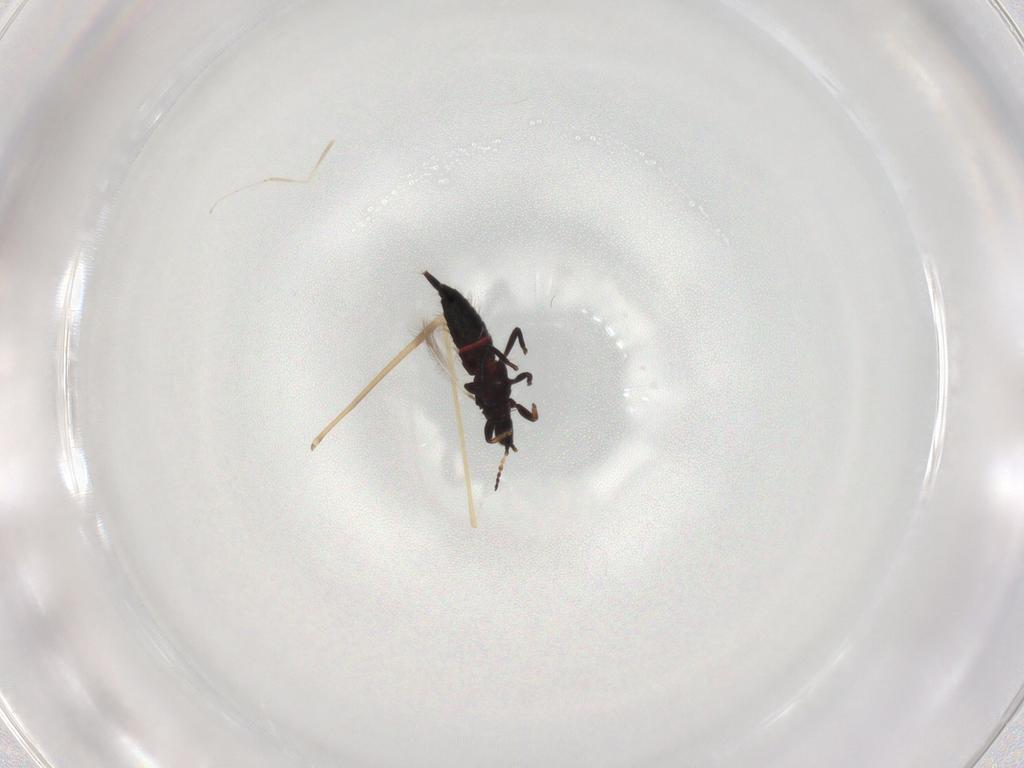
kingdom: Animalia
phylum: Arthropoda
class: Insecta
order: Thysanoptera
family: Phlaeothripidae
